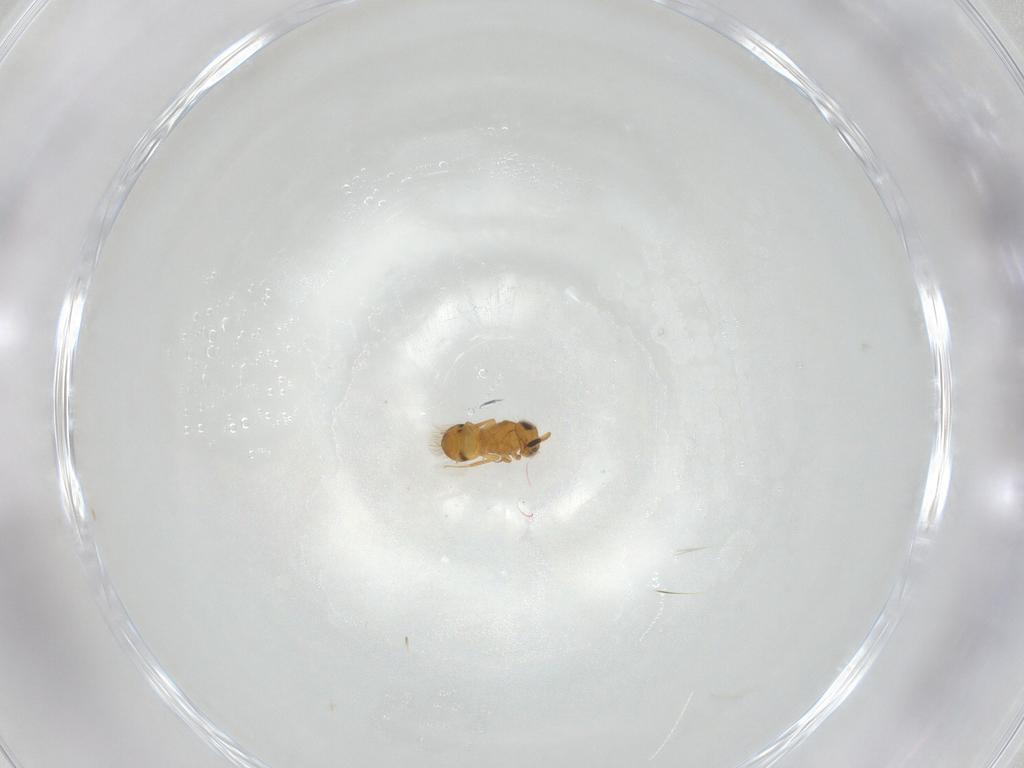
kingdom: Animalia
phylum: Arthropoda
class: Insecta
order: Hymenoptera
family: Scelionidae
